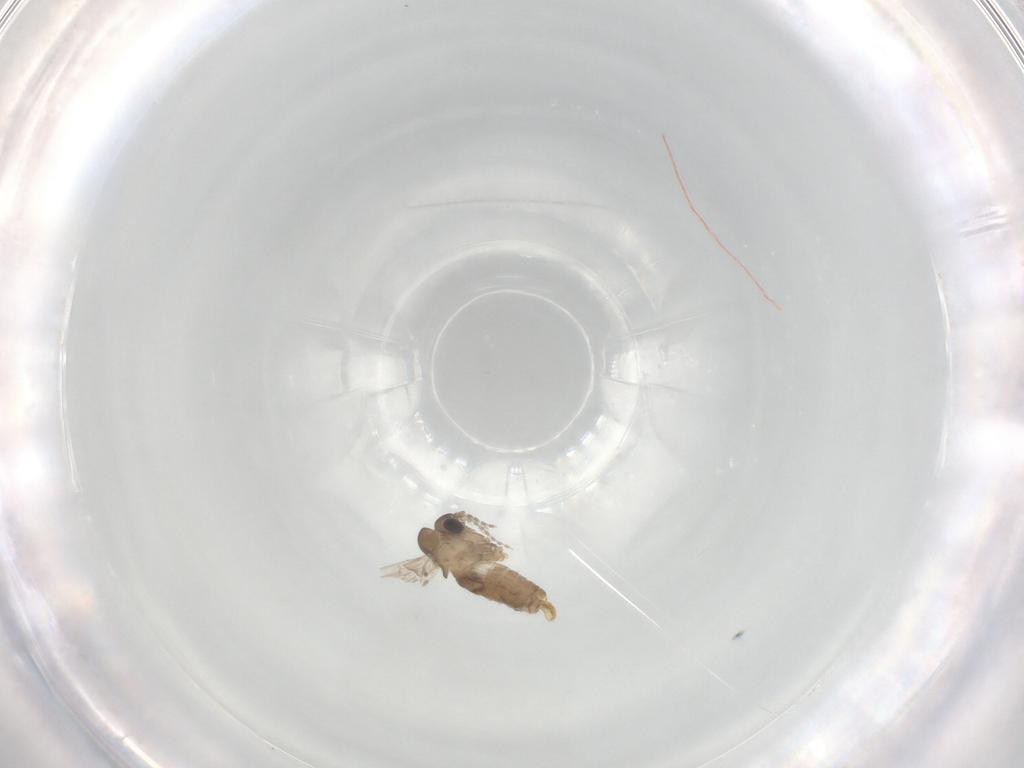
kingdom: Animalia
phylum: Arthropoda
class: Insecta
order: Diptera
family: Psychodidae
